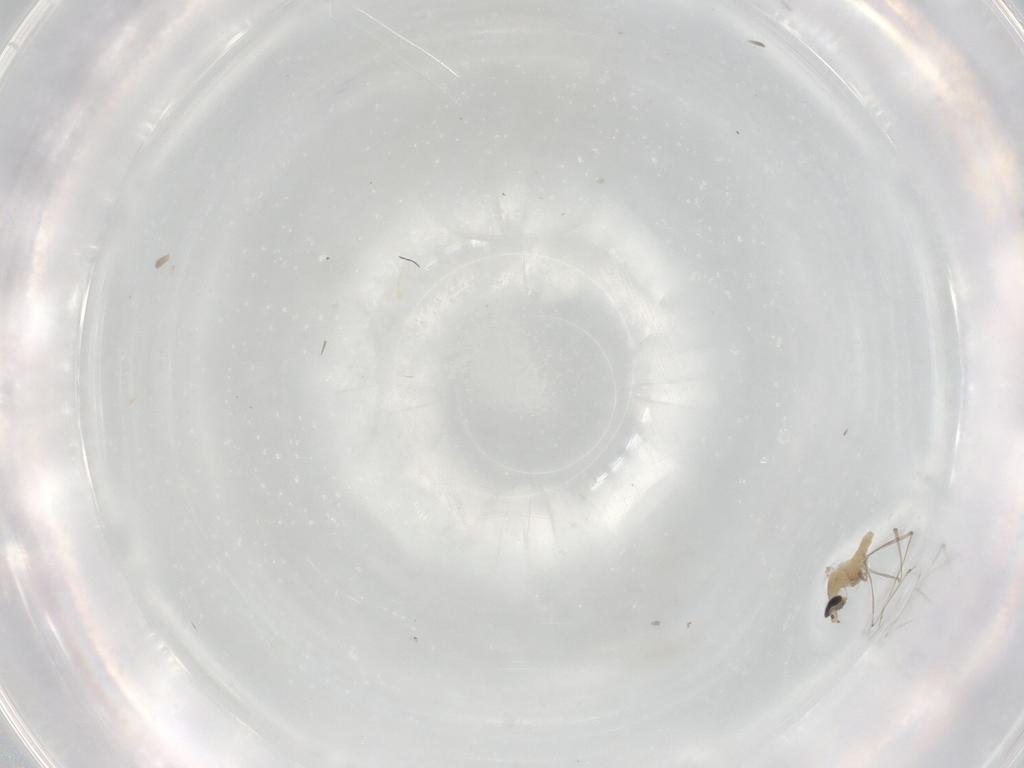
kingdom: Animalia
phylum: Arthropoda
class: Insecta
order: Diptera
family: Cecidomyiidae
